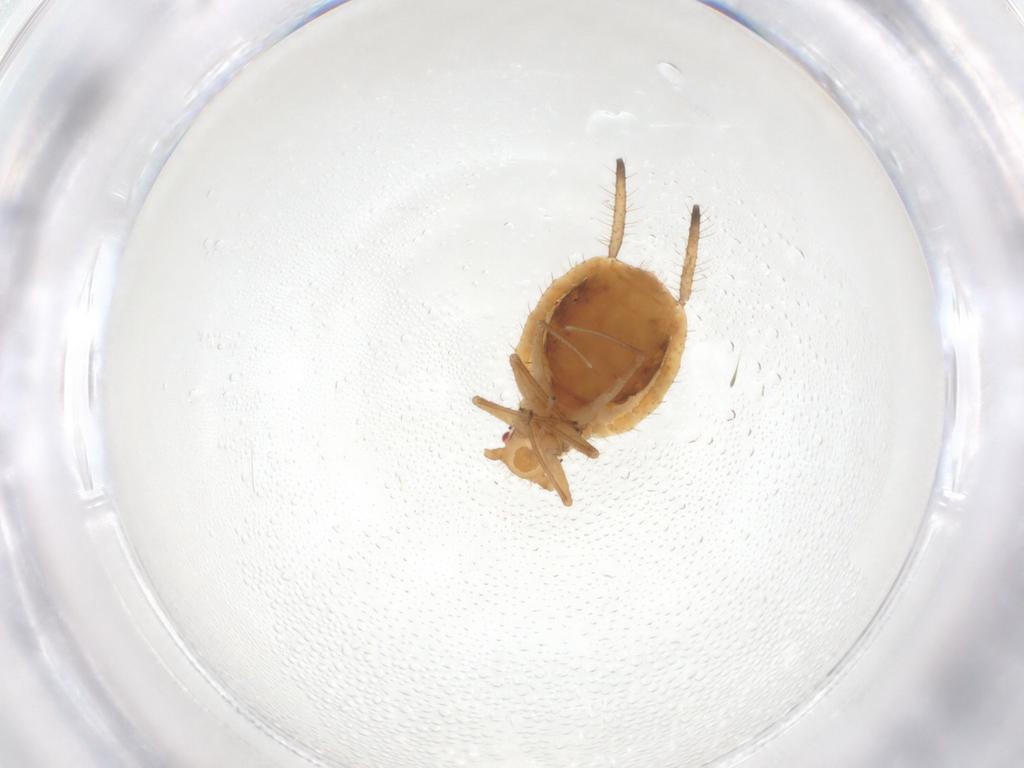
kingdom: Animalia
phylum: Arthropoda
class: Insecta
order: Hemiptera
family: Aphididae
